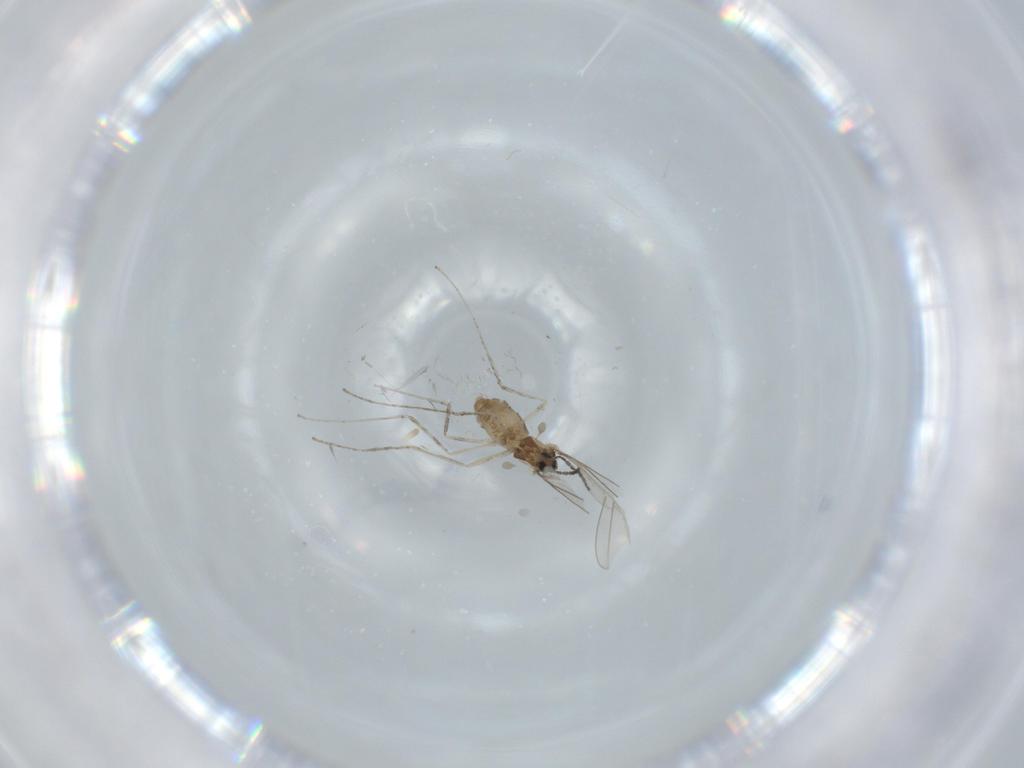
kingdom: Animalia
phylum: Arthropoda
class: Insecta
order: Diptera
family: Cecidomyiidae
